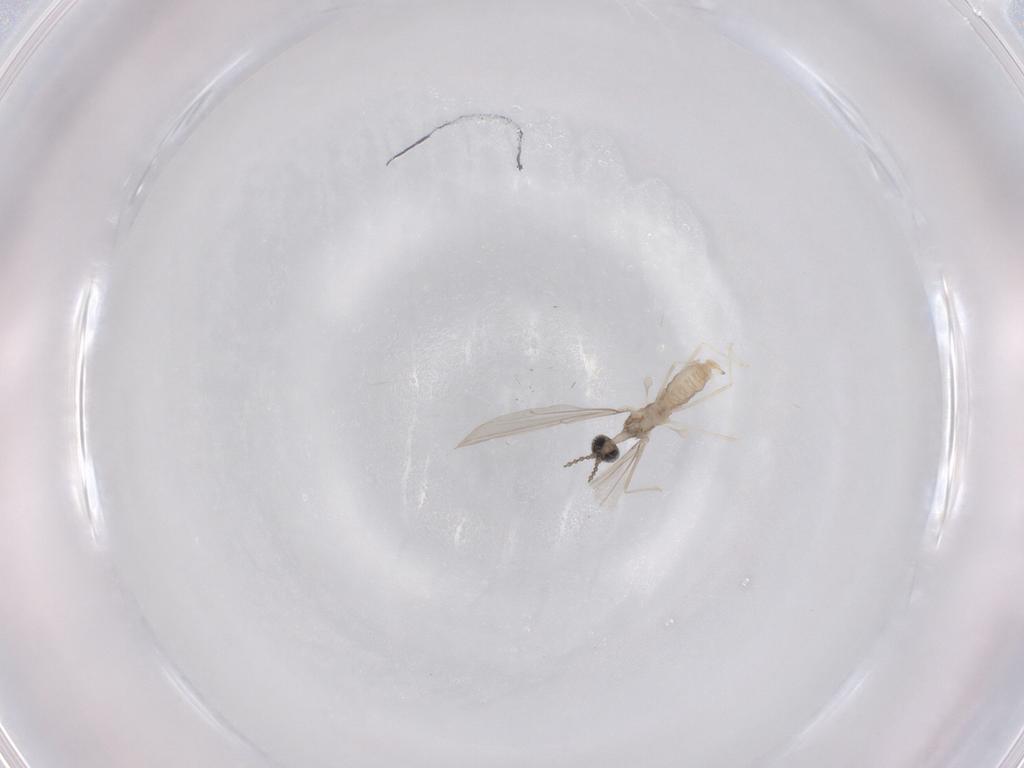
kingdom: Animalia
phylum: Arthropoda
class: Insecta
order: Diptera
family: Cecidomyiidae
